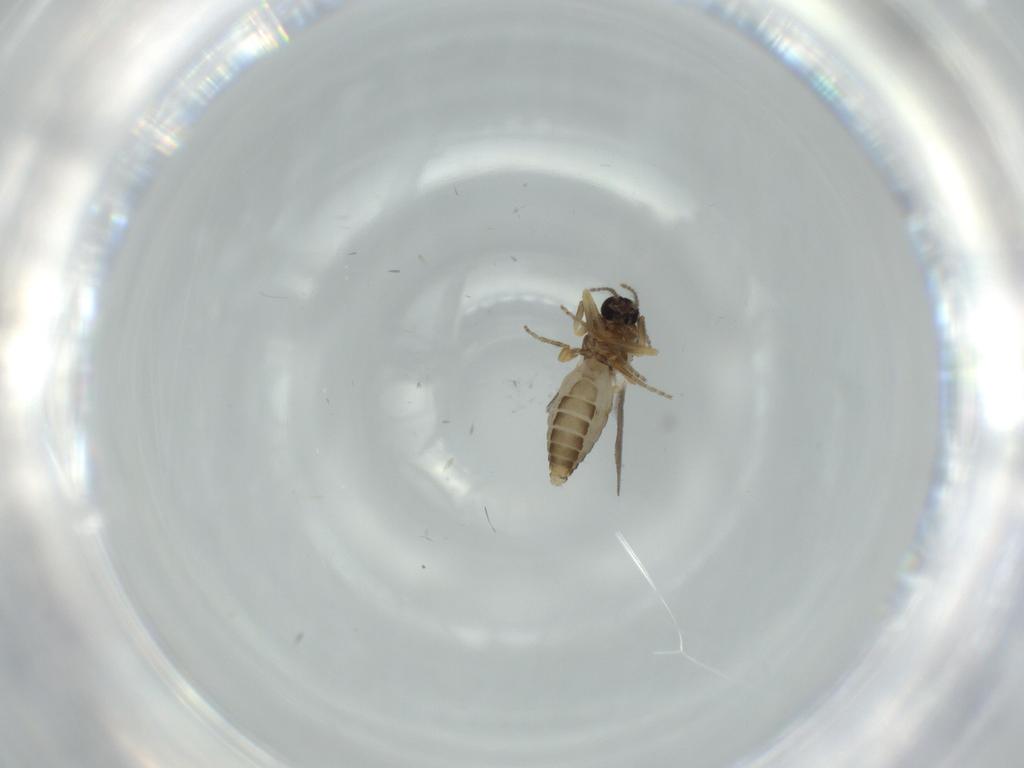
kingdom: Animalia
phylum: Arthropoda
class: Insecta
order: Diptera
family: Ceratopogonidae
